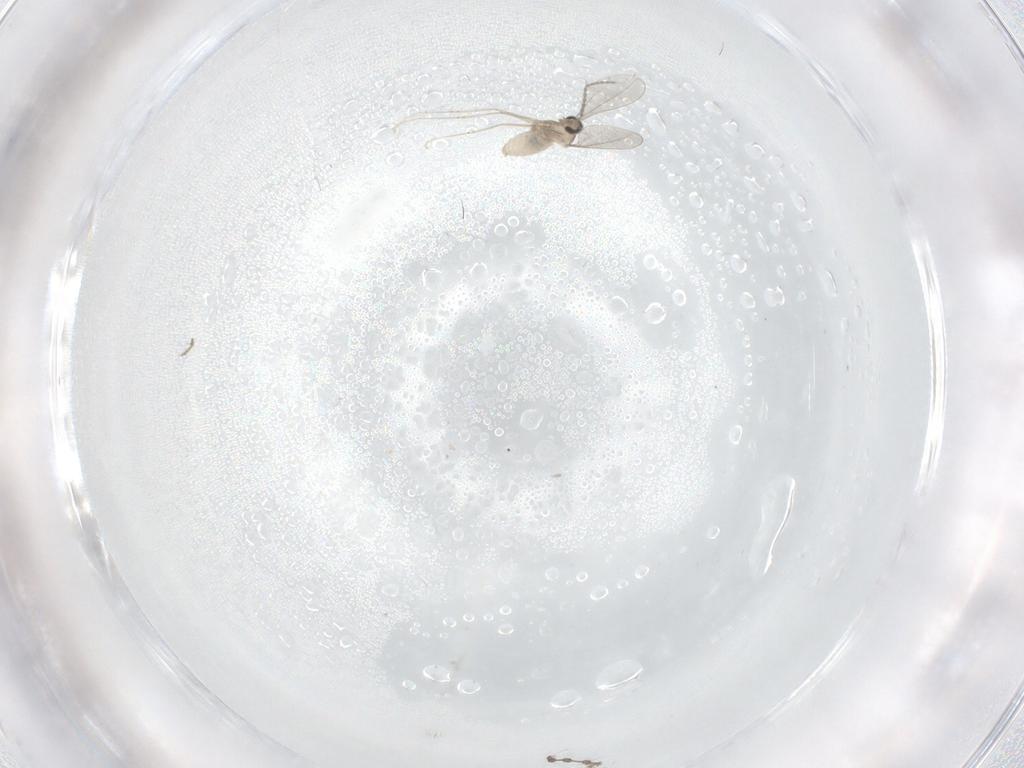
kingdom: Animalia
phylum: Arthropoda
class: Insecta
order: Diptera
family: Cecidomyiidae
